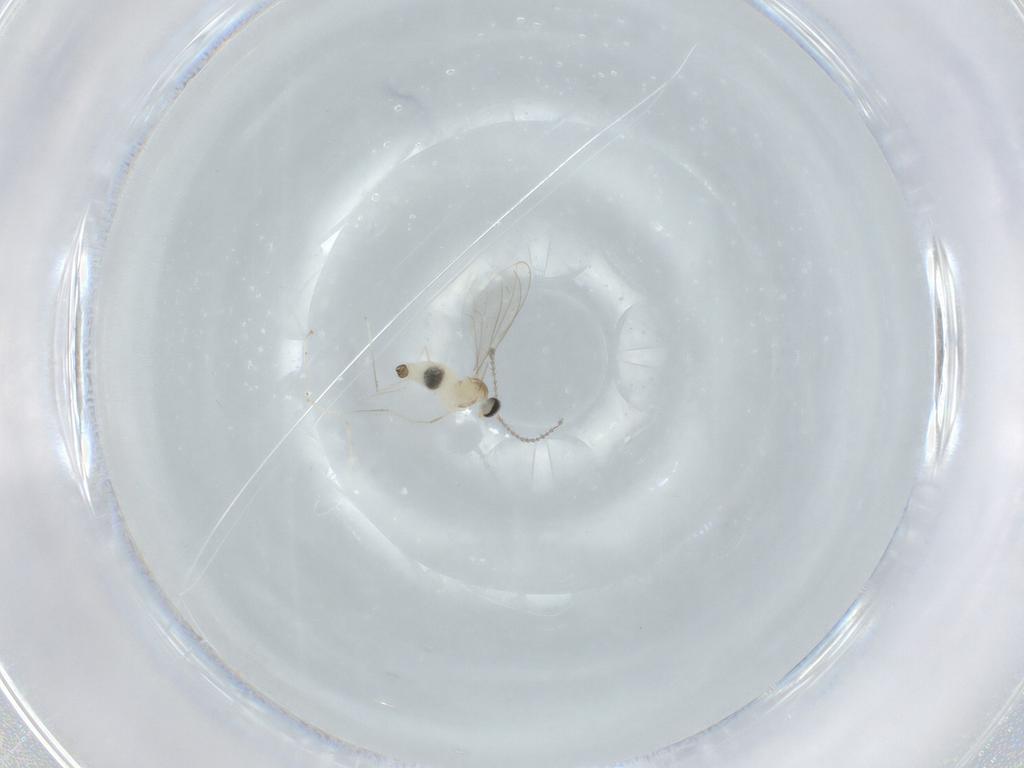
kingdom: Animalia
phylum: Arthropoda
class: Insecta
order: Diptera
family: Cecidomyiidae
